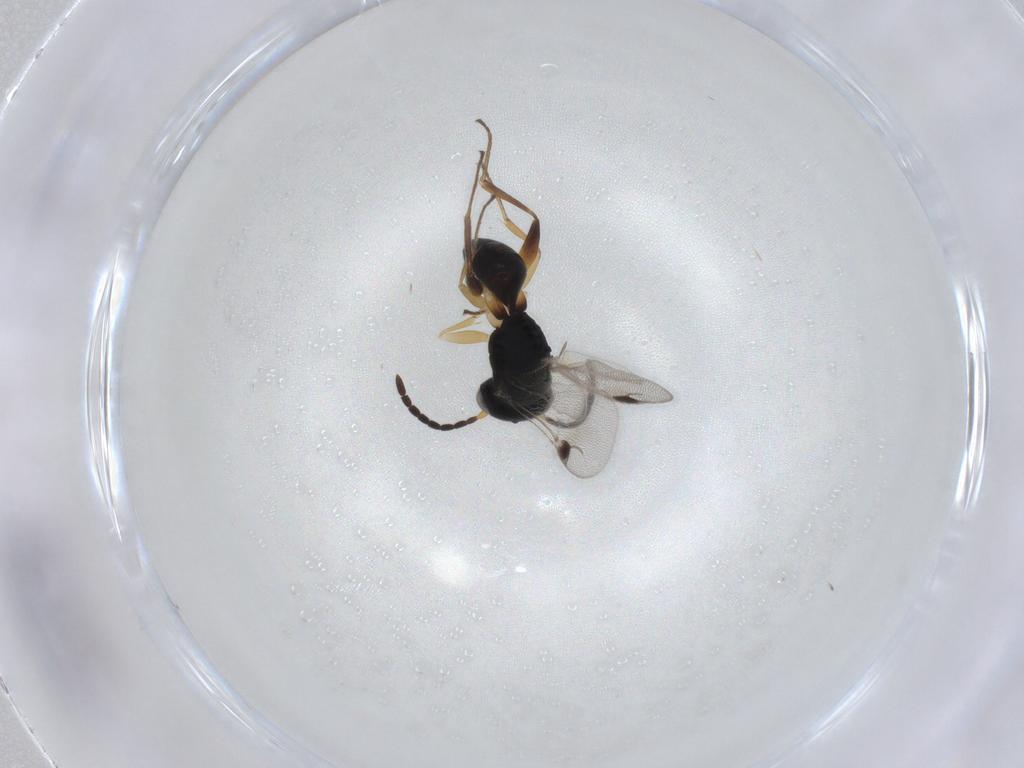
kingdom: Animalia
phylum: Arthropoda
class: Insecta
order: Hymenoptera
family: Dryinidae
